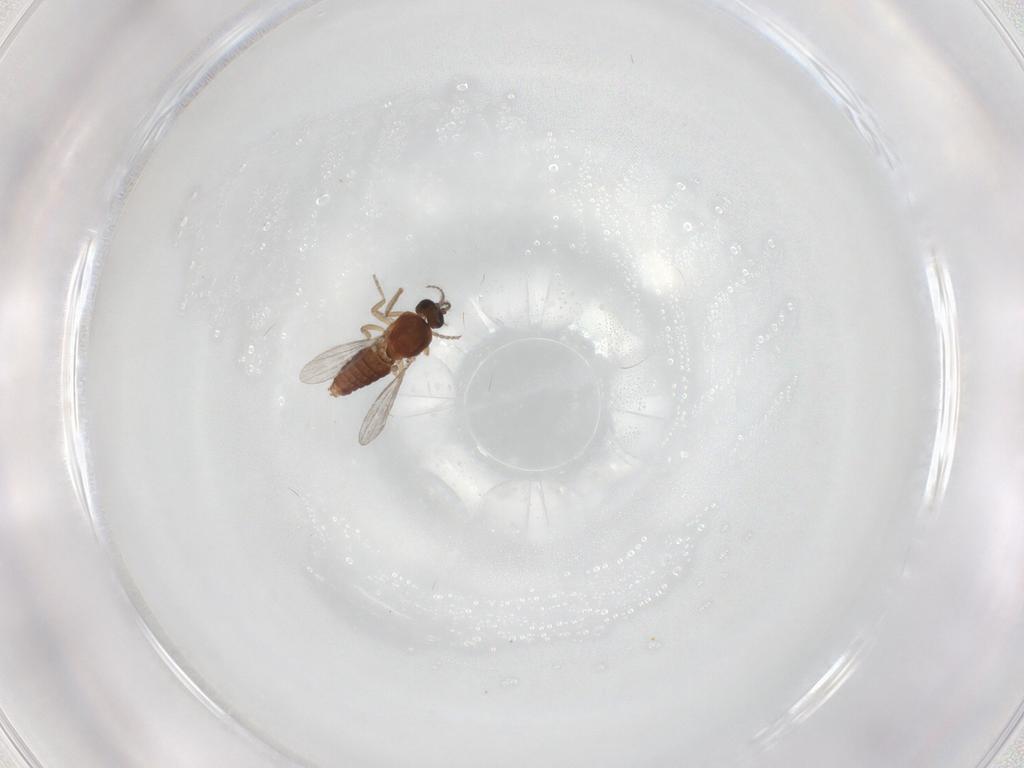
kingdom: Animalia
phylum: Arthropoda
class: Insecta
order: Diptera
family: Ceratopogonidae
